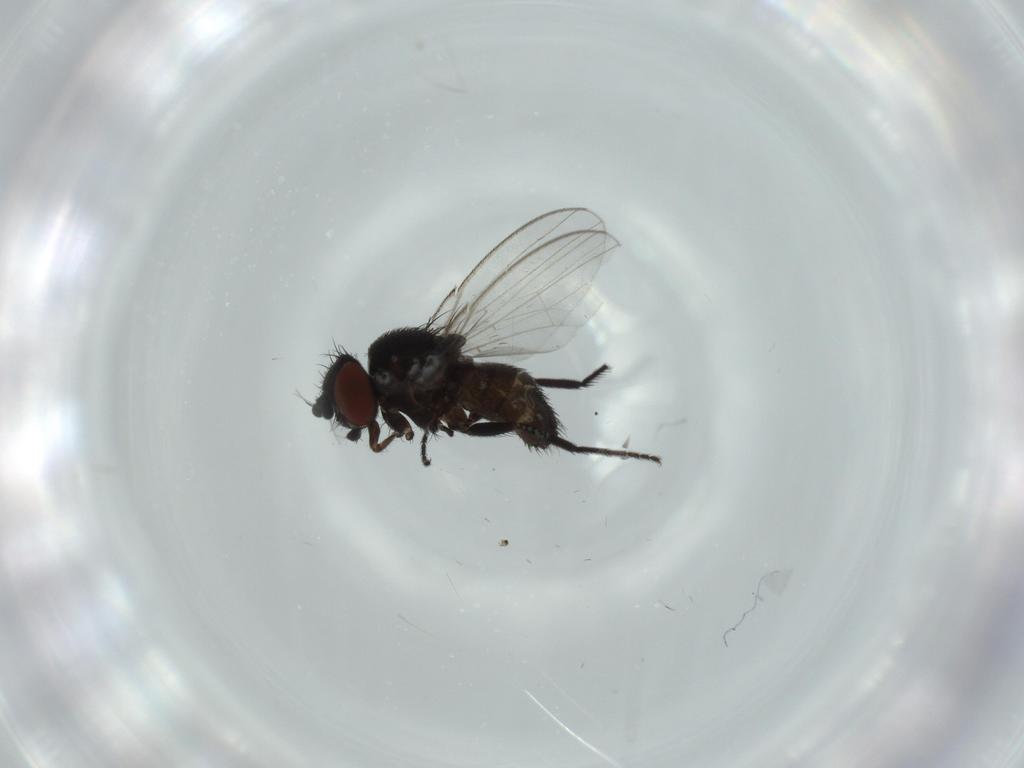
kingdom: Animalia
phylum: Arthropoda
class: Insecta
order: Diptera
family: Milichiidae
